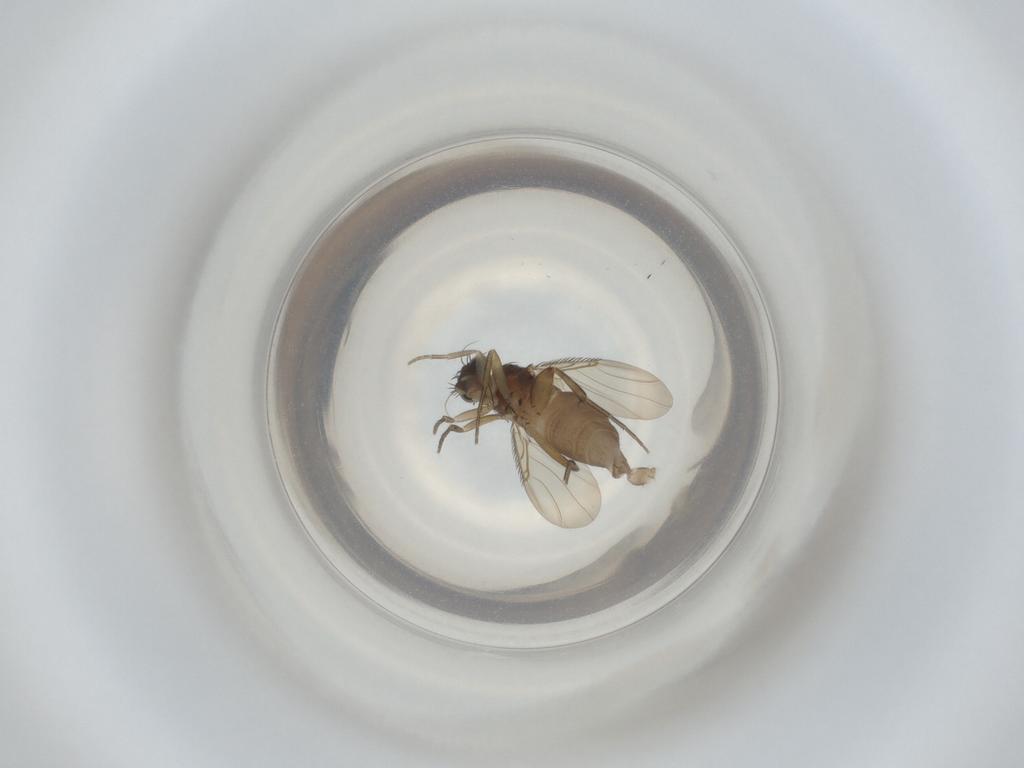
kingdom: Animalia
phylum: Arthropoda
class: Insecta
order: Diptera
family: Phoridae
